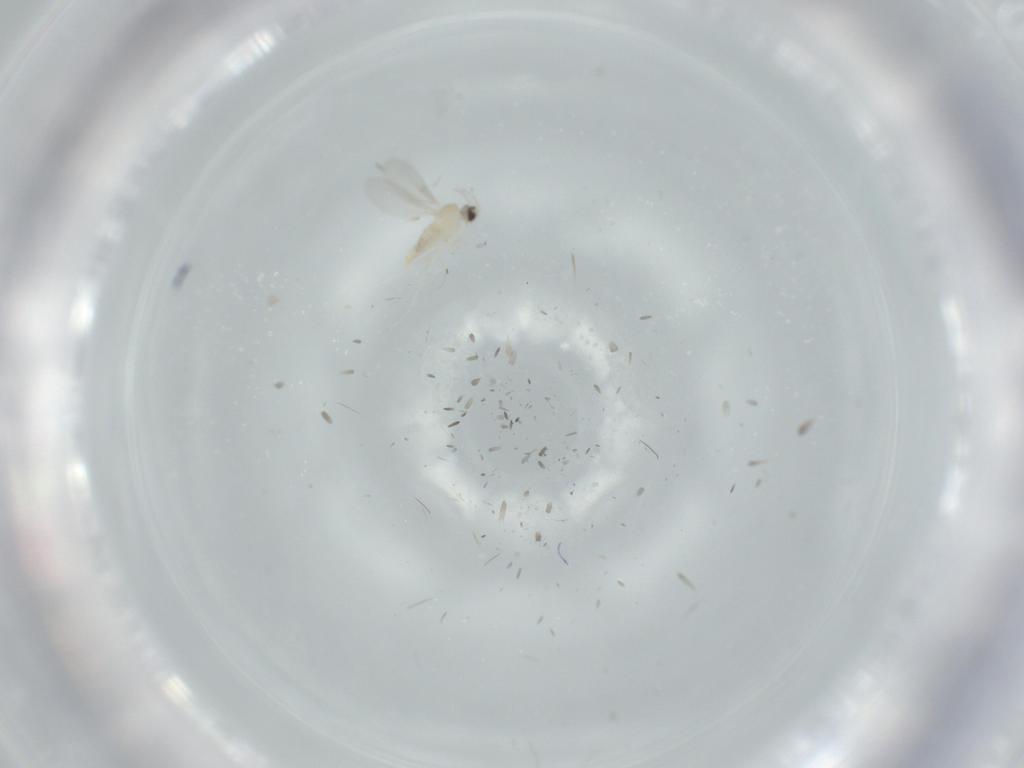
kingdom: Animalia
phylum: Arthropoda
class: Insecta
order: Diptera
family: Cecidomyiidae
